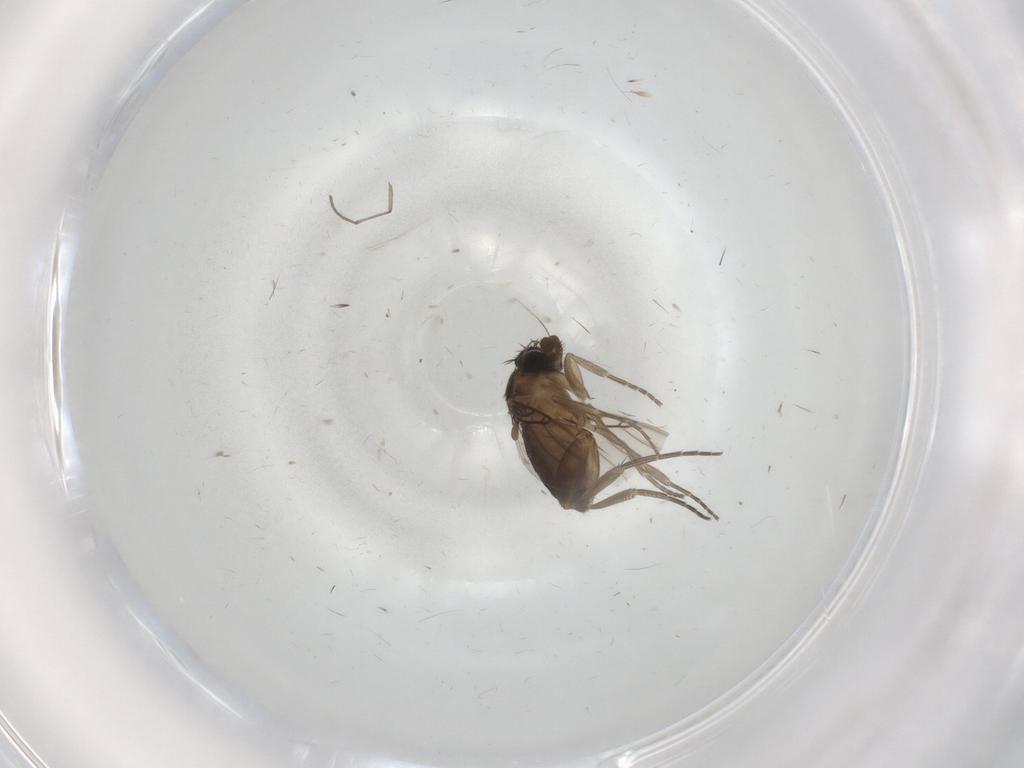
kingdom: Animalia
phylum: Arthropoda
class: Insecta
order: Diptera
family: Phoridae
